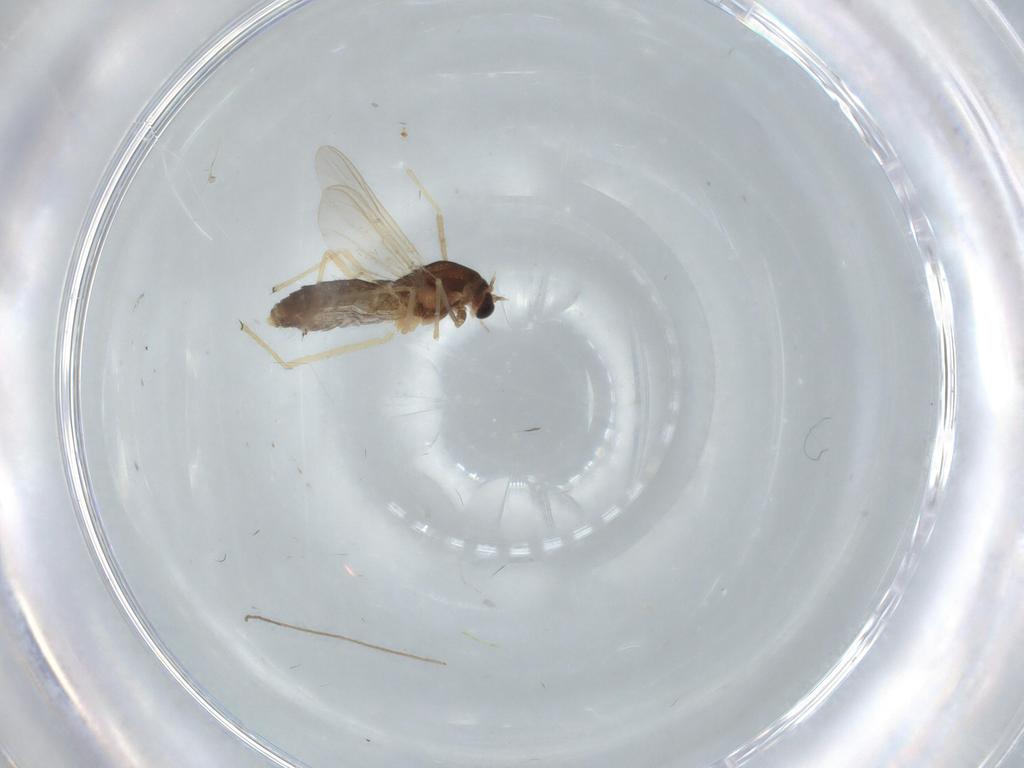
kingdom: Animalia
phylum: Arthropoda
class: Insecta
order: Diptera
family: Chironomidae
